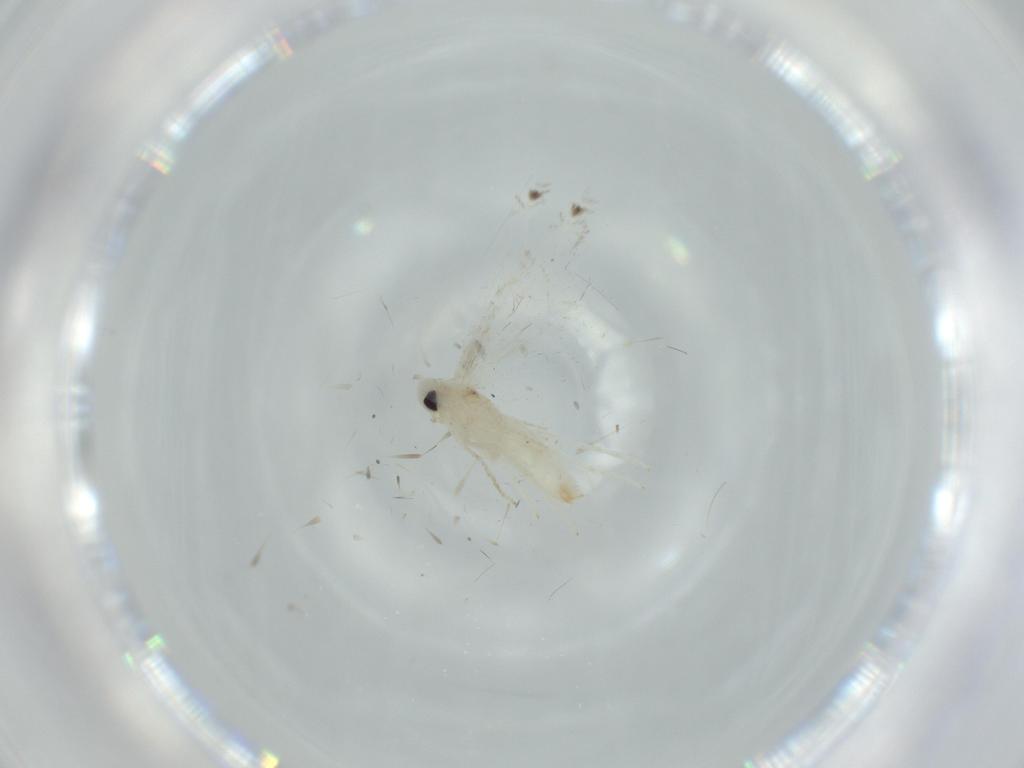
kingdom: Animalia
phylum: Arthropoda
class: Insecta
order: Lepidoptera
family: Gracillariidae
